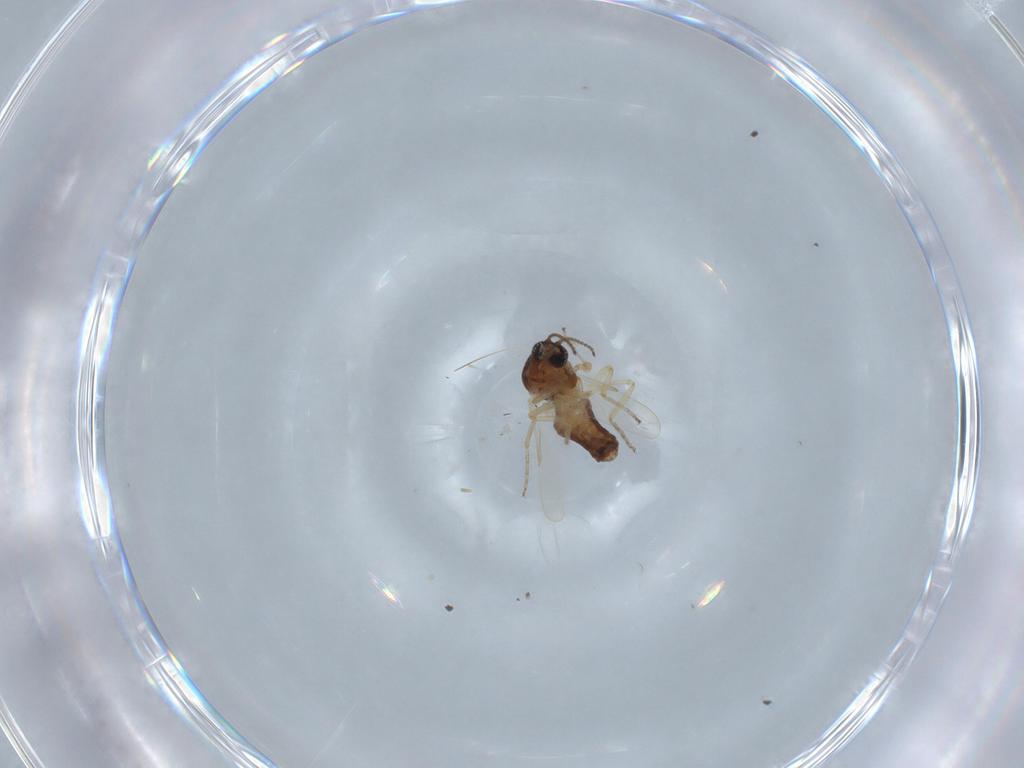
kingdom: Animalia
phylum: Arthropoda
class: Insecta
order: Diptera
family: Ceratopogonidae
